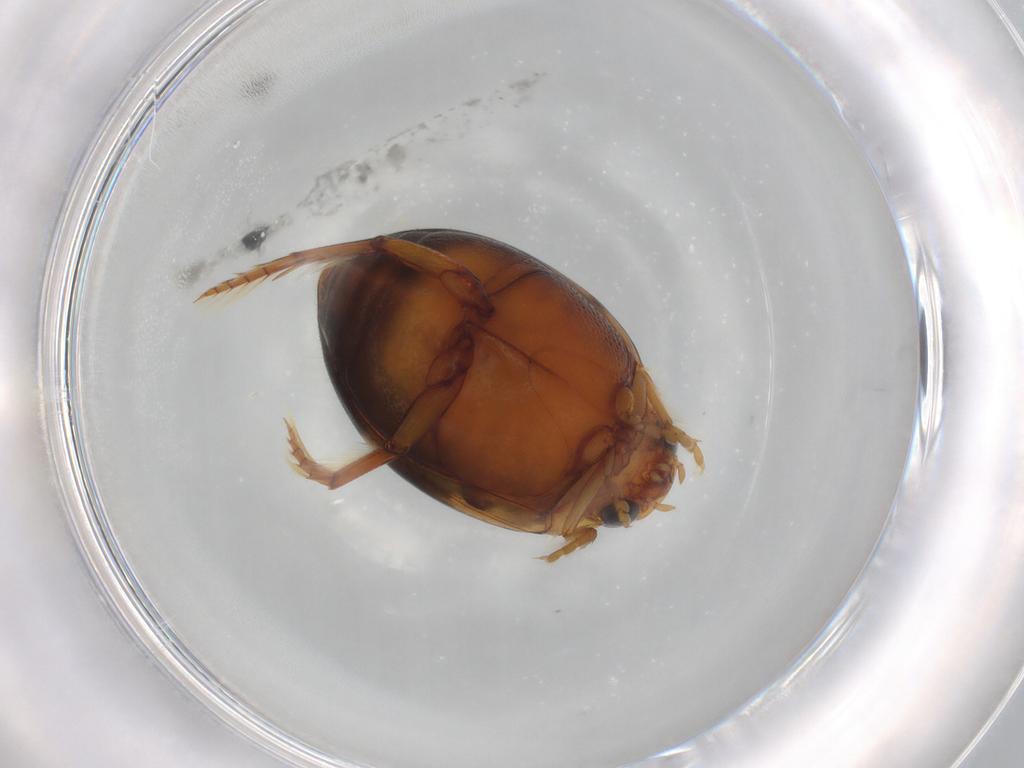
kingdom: Animalia
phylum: Arthropoda
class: Insecta
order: Coleoptera
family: Dytiscidae
